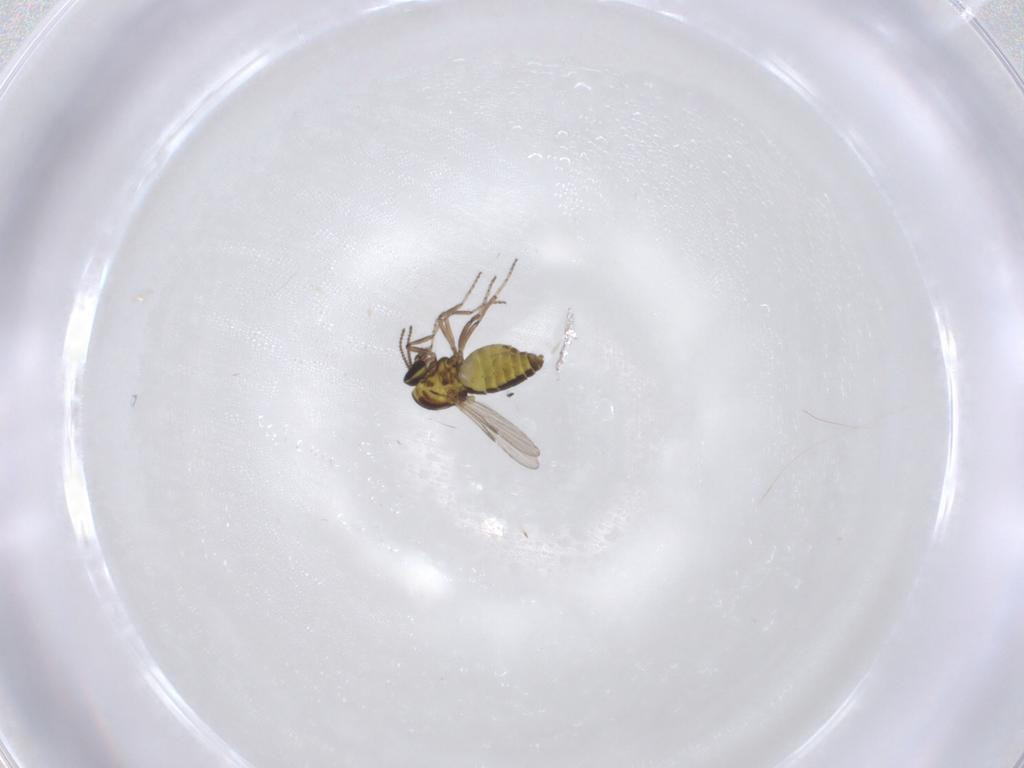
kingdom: Animalia
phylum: Arthropoda
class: Insecta
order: Diptera
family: Ceratopogonidae
